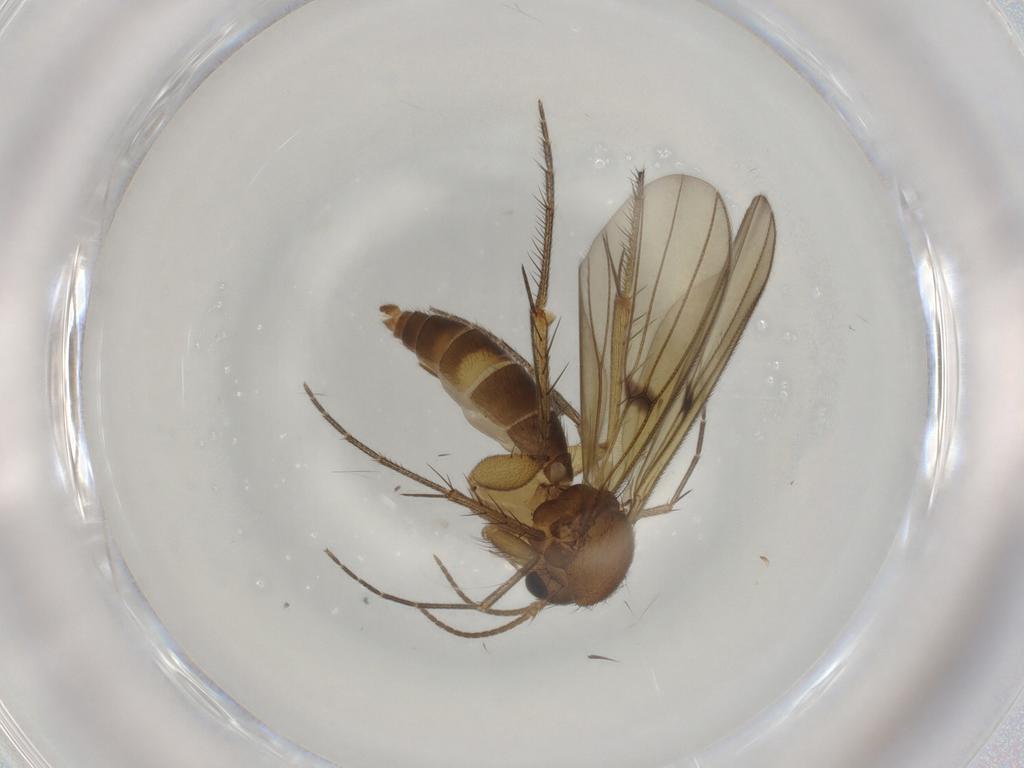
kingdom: Animalia
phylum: Arthropoda
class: Insecta
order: Diptera
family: Mycetophilidae
